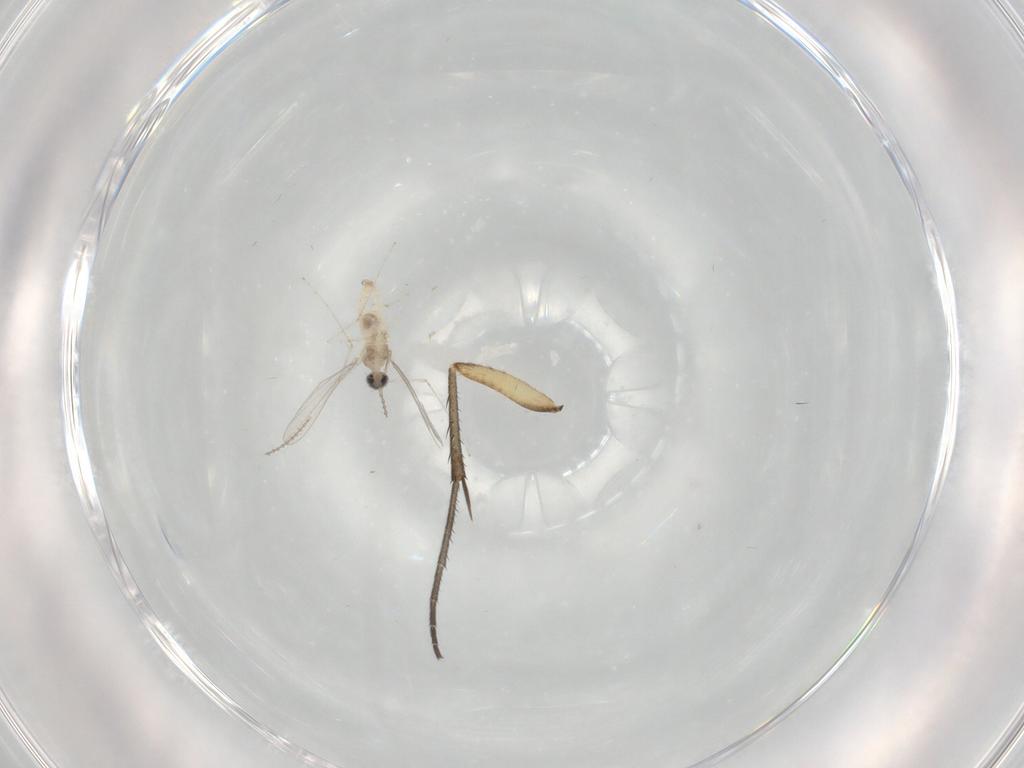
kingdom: Animalia
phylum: Arthropoda
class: Insecta
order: Diptera
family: Cecidomyiidae
